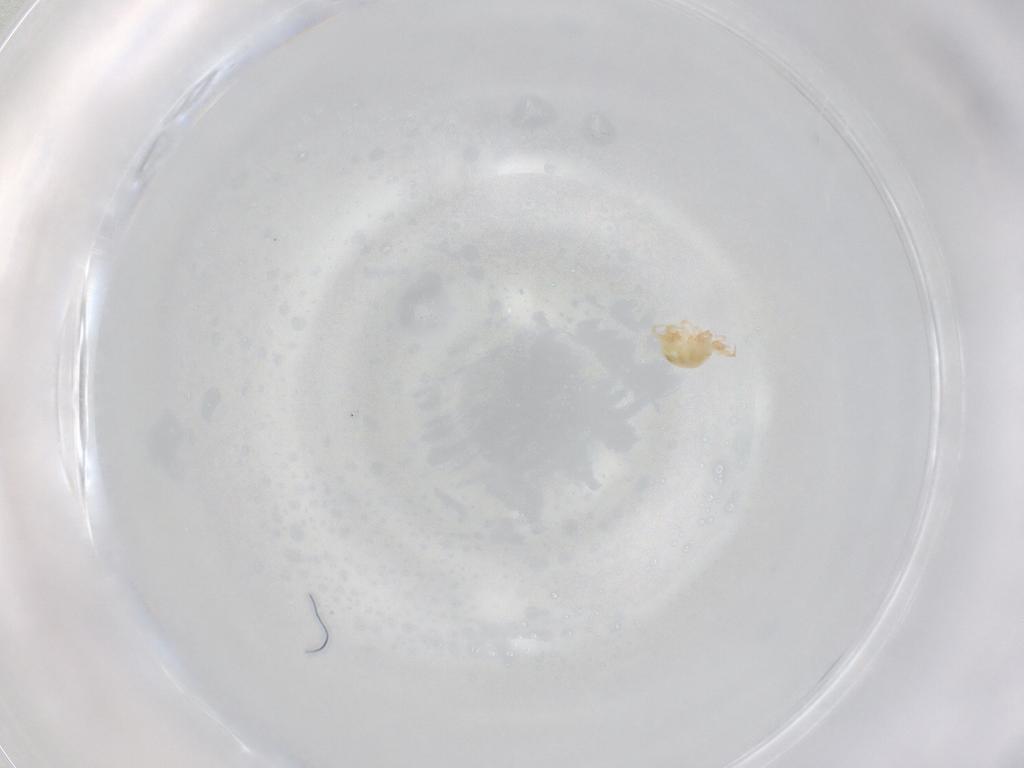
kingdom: Animalia
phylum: Arthropoda
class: Arachnida
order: Trombidiformes
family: Cunaxidae
